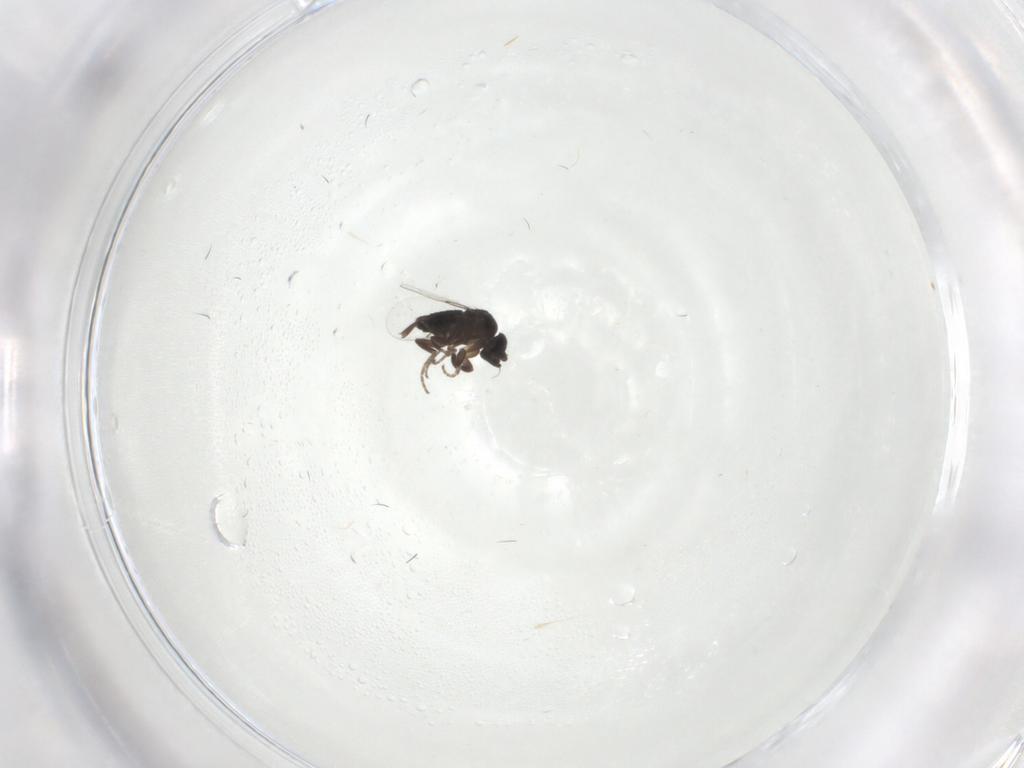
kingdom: Animalia
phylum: Arthropoda
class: Insecta
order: Diptera
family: Phoridae
